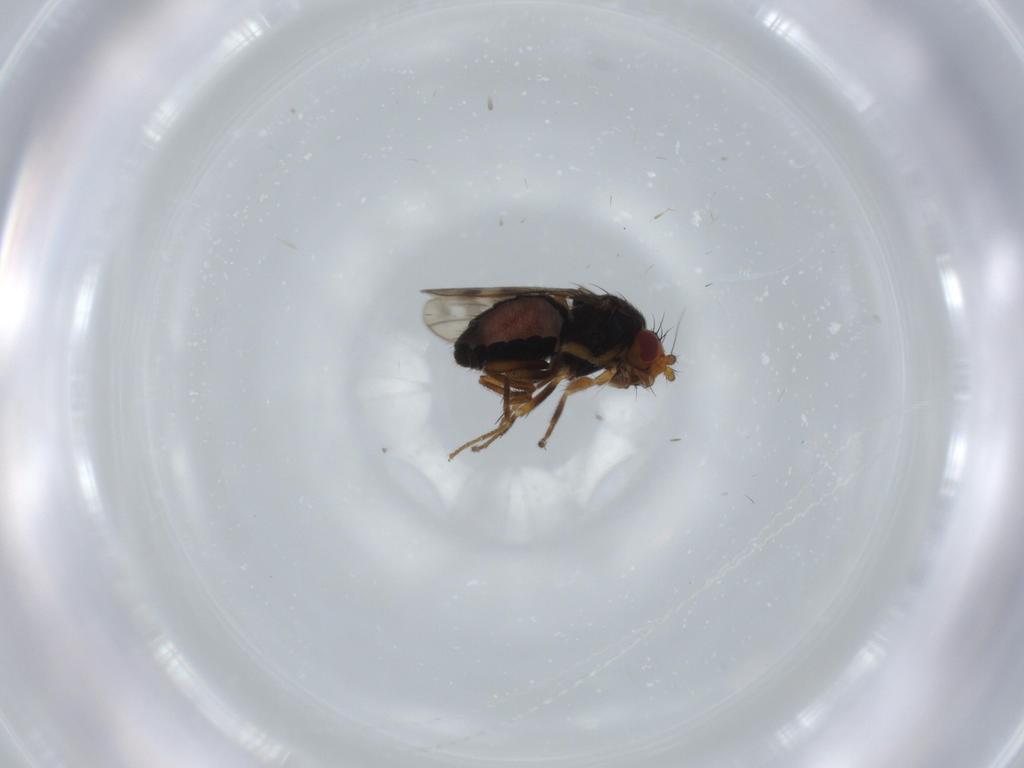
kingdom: Animalia
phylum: Arthropoda
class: Insecta
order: Diptera
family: Sphaeroceridae
